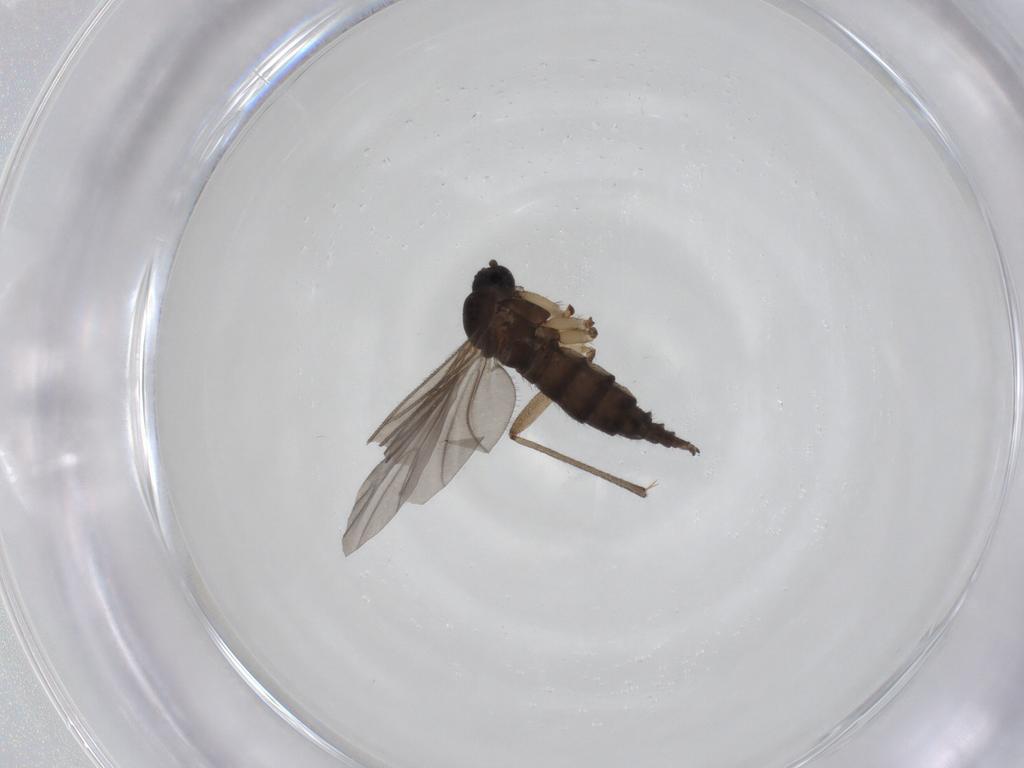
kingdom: Animalia
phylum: Arthropoda
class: Insecta
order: Diptera
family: Sciaridae
